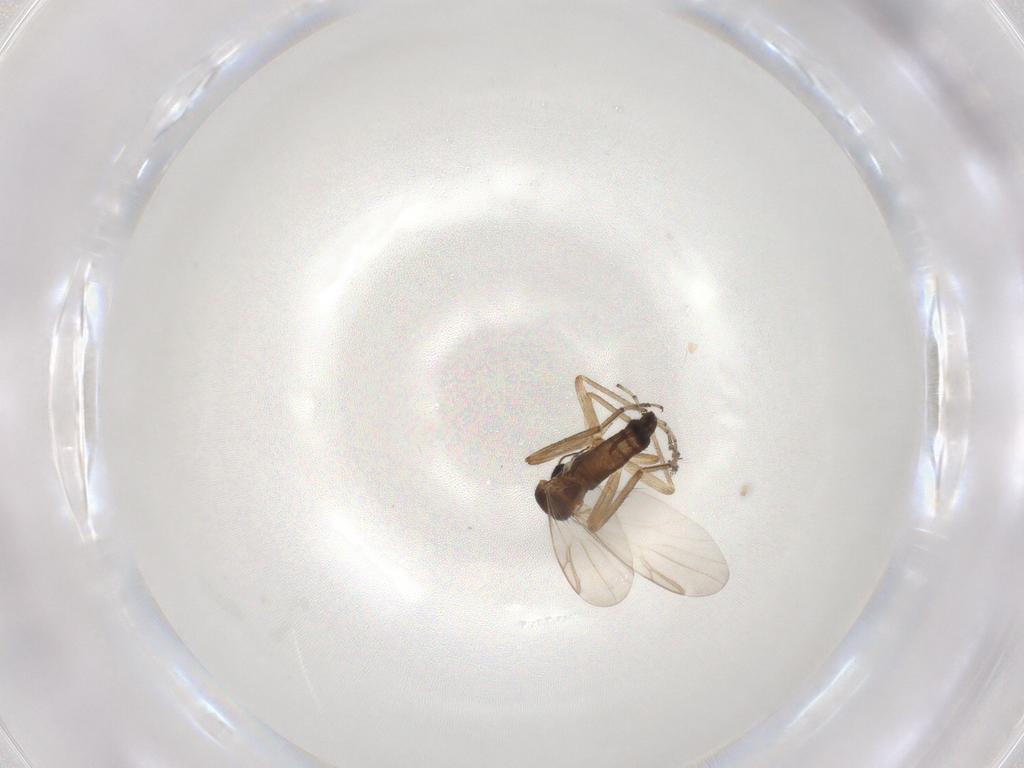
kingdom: Animalia
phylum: Arthropoda
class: Insecta
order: Diptera
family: Ceratopogonidae
